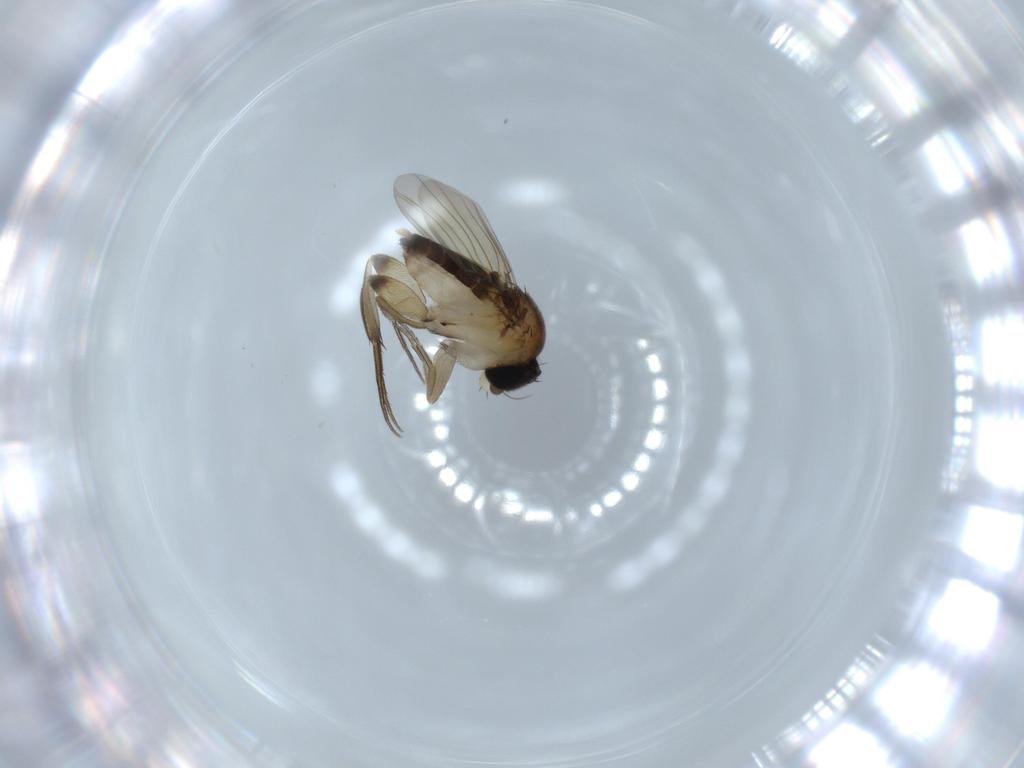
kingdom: Animalia
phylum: Arthropoda
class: Insecta
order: Diptera
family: Phoridae
